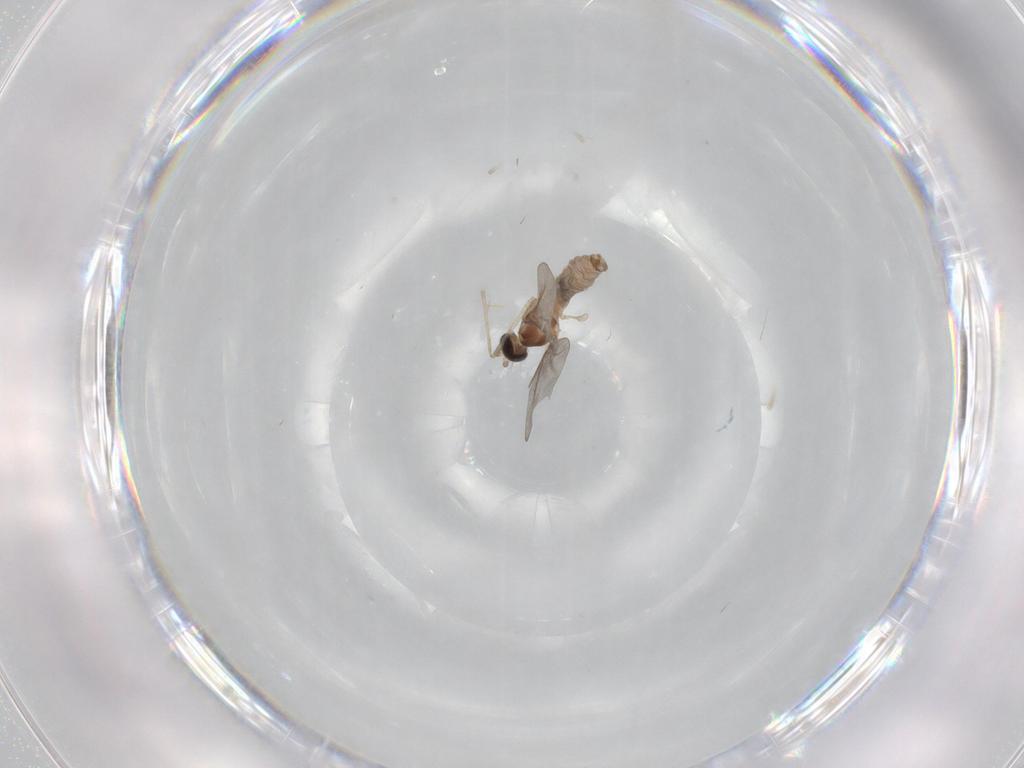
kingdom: Animalia
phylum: Arthropoda
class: Insecta
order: Diptera
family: Cecidomyiidae
